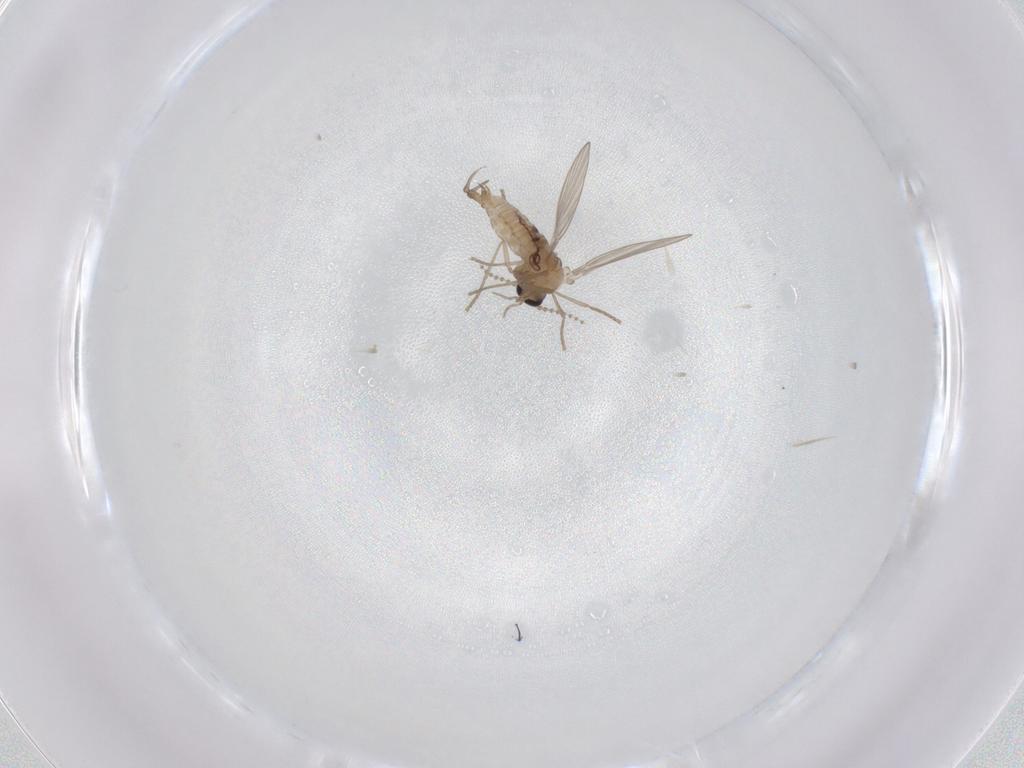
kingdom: Animalia
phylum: Arthropoda
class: Insecta
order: Diptera
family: Psychodidae
